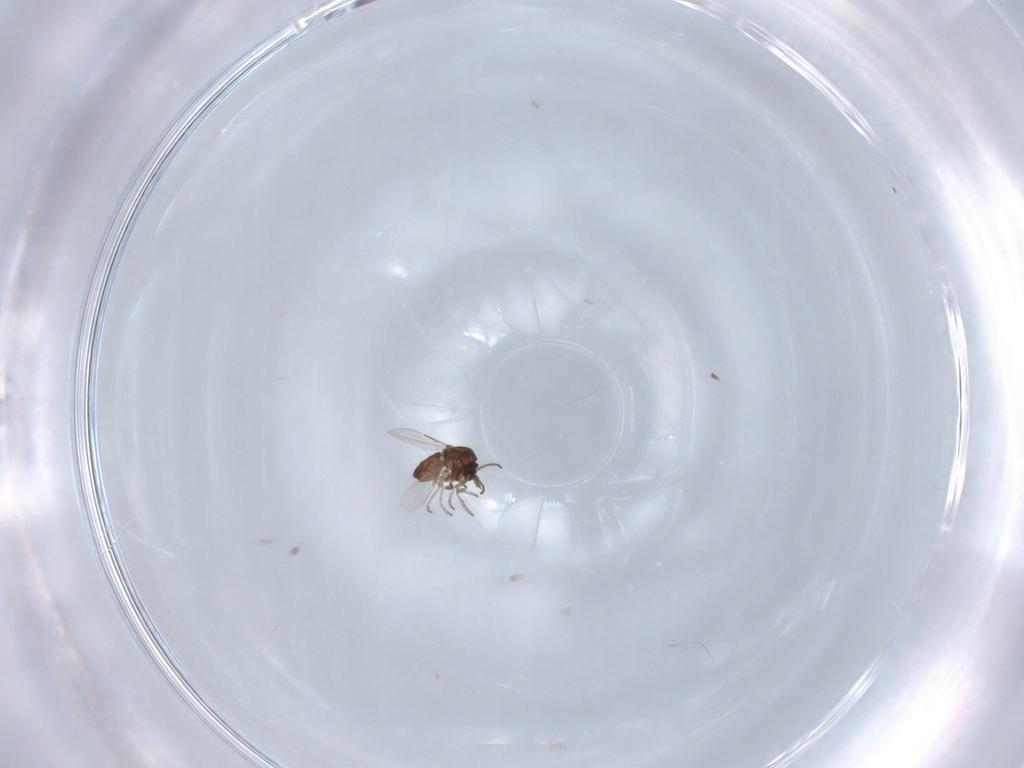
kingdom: Animalia
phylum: Arthropoda
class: Insecta
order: Diptera
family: Ceratopogonidae
